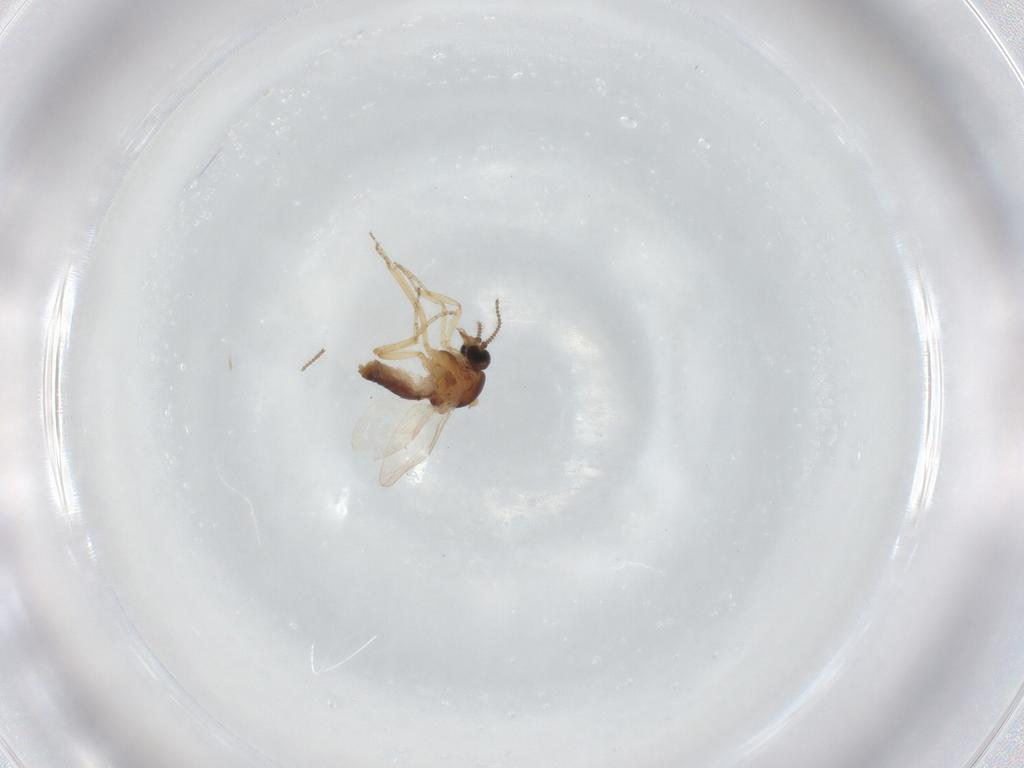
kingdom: Animalia
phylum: Arthropoda
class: Insecta
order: Diptera
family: Ceratopogonidae
